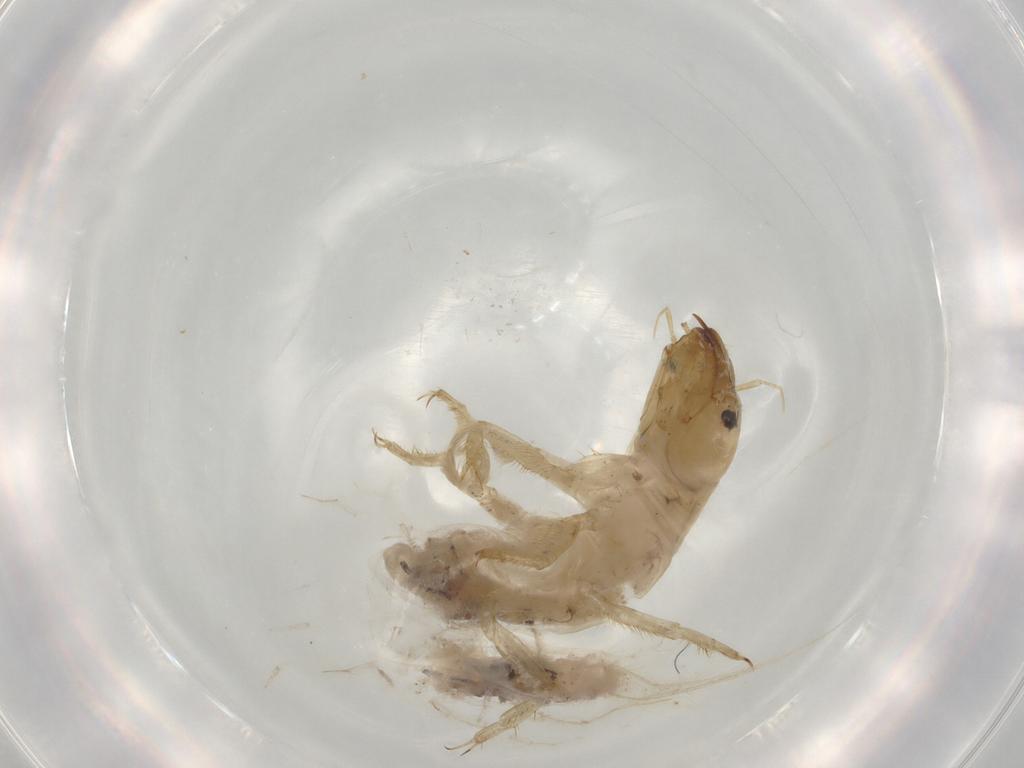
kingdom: Animalia
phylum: Arthropoda
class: Insecta
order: Megaloptera
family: Sialidae
